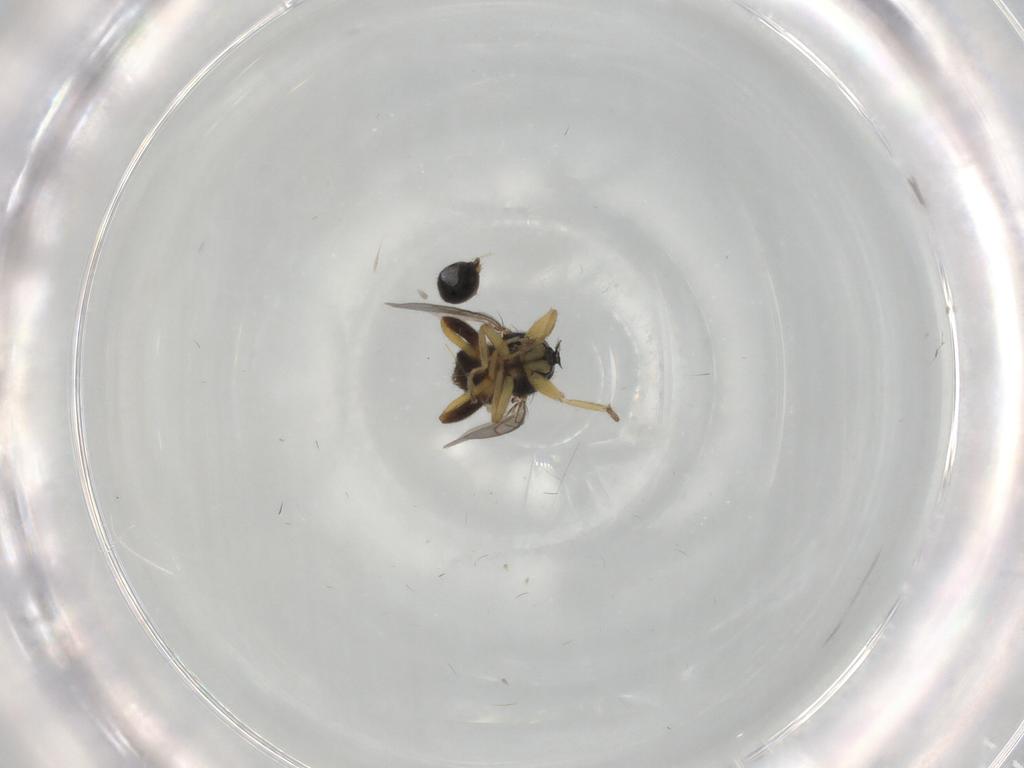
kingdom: Animalia
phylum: Arthropoda
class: Insecta
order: Diptera
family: Hybotidae
